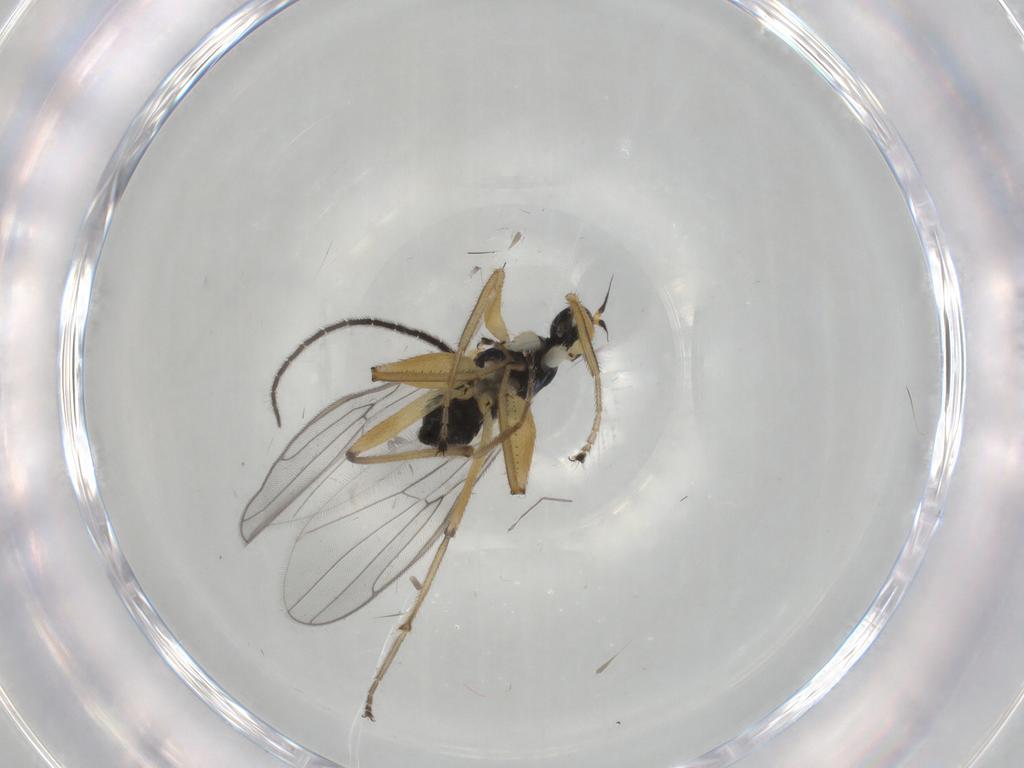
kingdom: Animalia
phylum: Arthropoda
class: Insecta
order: Diptera
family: Hybotidae
